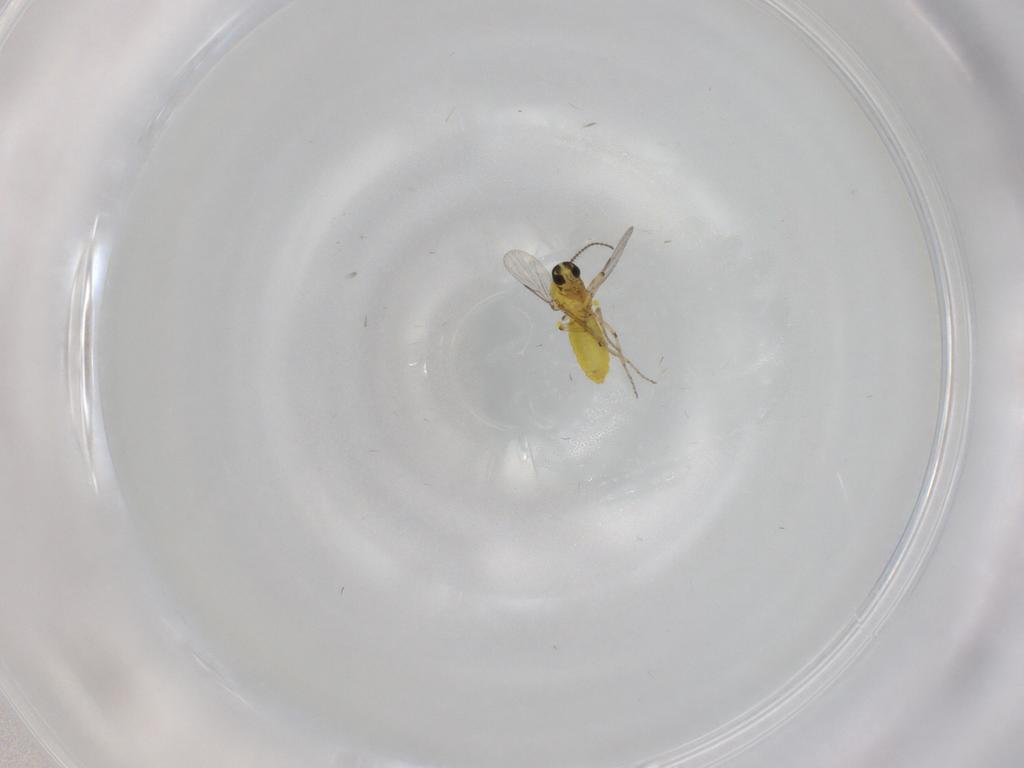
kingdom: Animalia
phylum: Arthropoda
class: Insecta
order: Diptera
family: Ceratopogonidae
